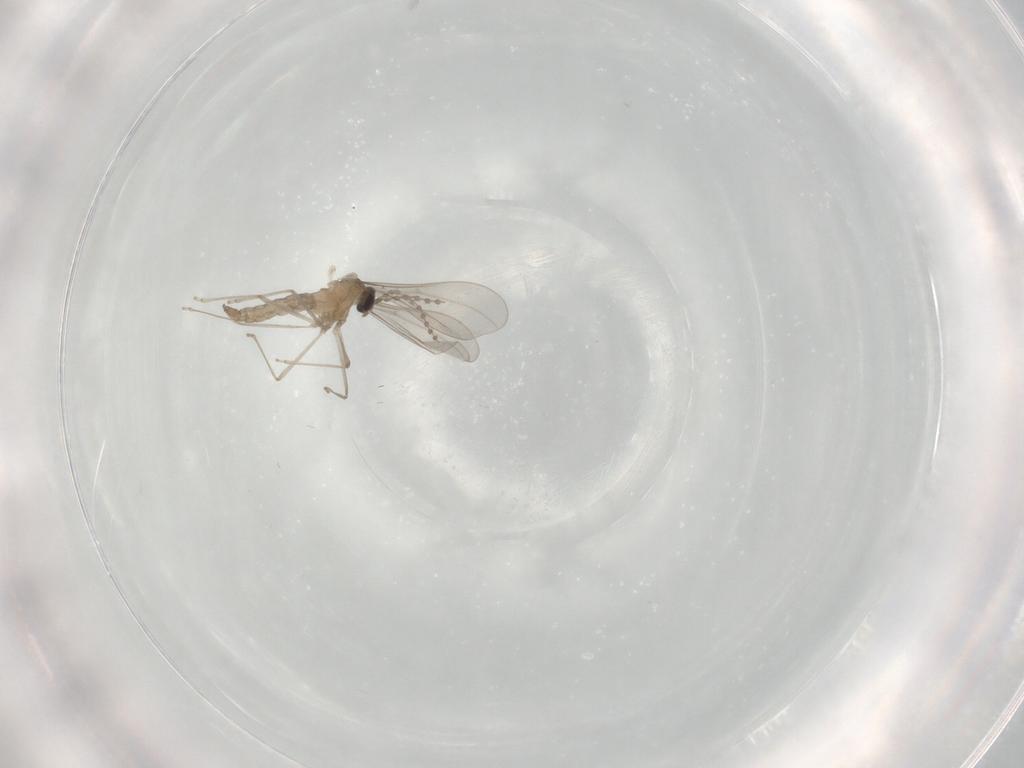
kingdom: Animalia
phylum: Arthropoda
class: Insecta
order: Diptera
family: Cecidomyiidae
